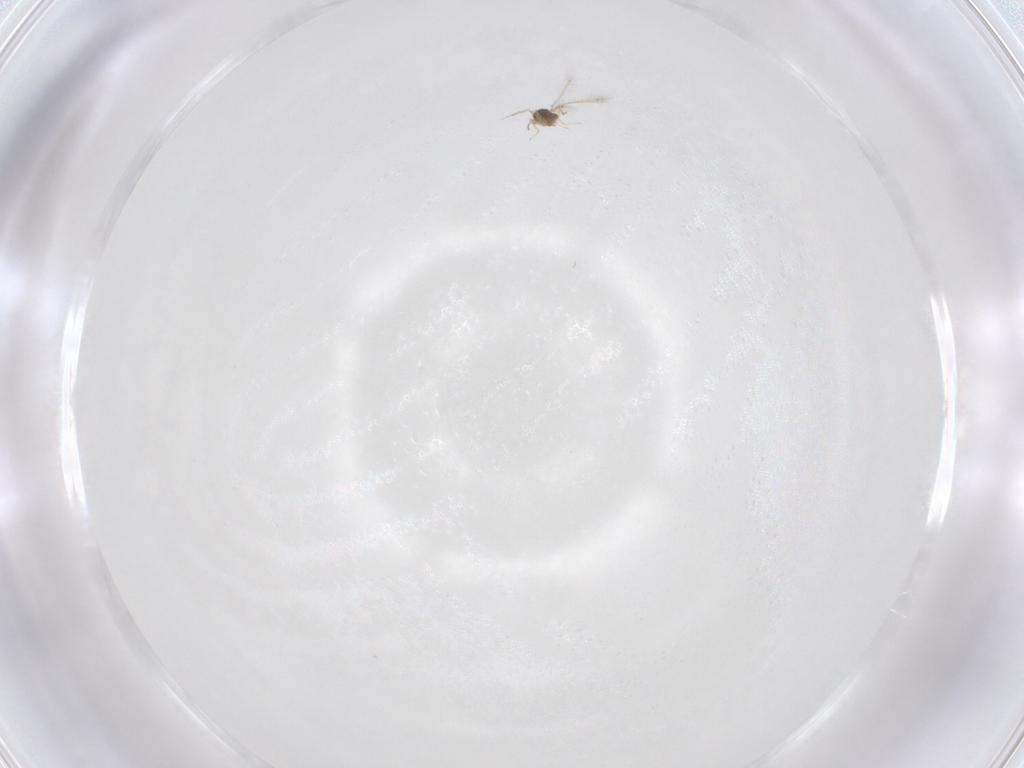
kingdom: Animalia
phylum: Arthropoda
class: Insecta
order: Hymenoptera
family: Mymaridae
